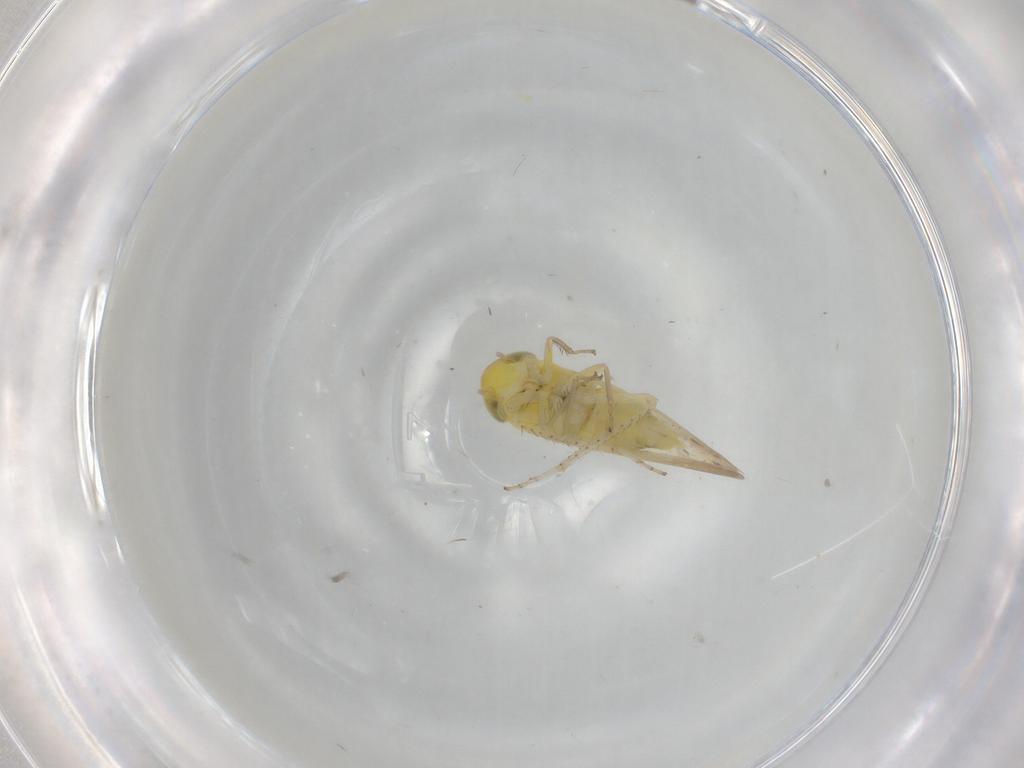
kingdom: Animalia
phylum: Arthropoda
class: Insecta
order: Hemiptera
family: Cicadellidae
